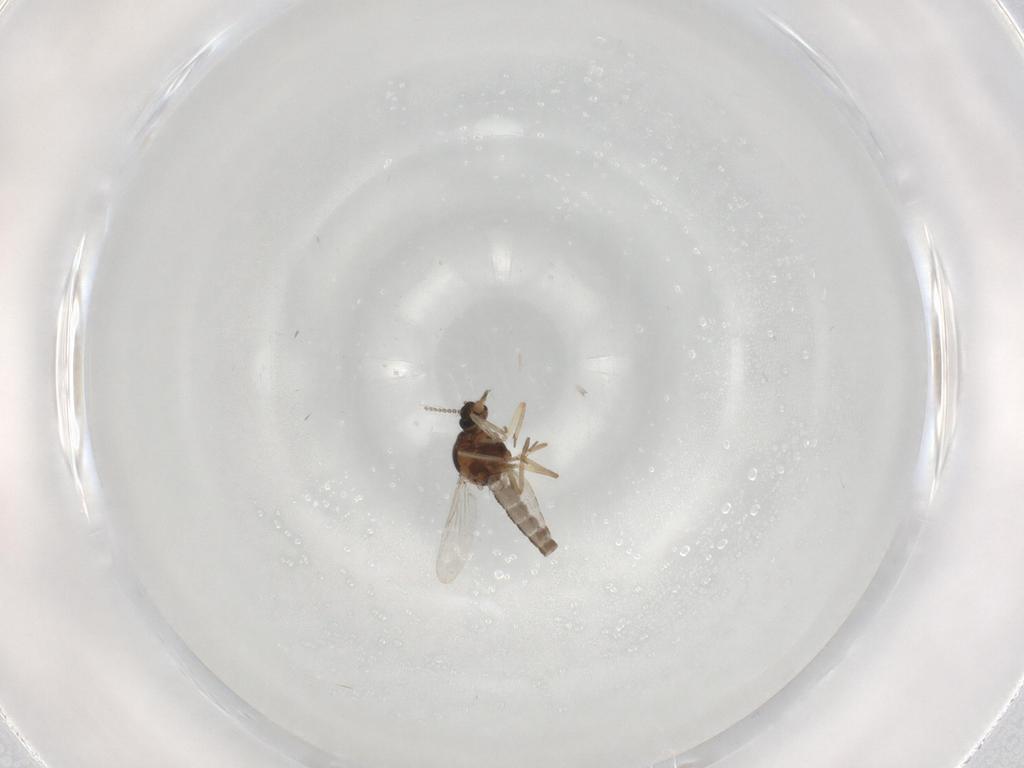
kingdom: Animalia
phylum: Arthropoda
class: Insecta
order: Diptera
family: Ceratopogonidae
